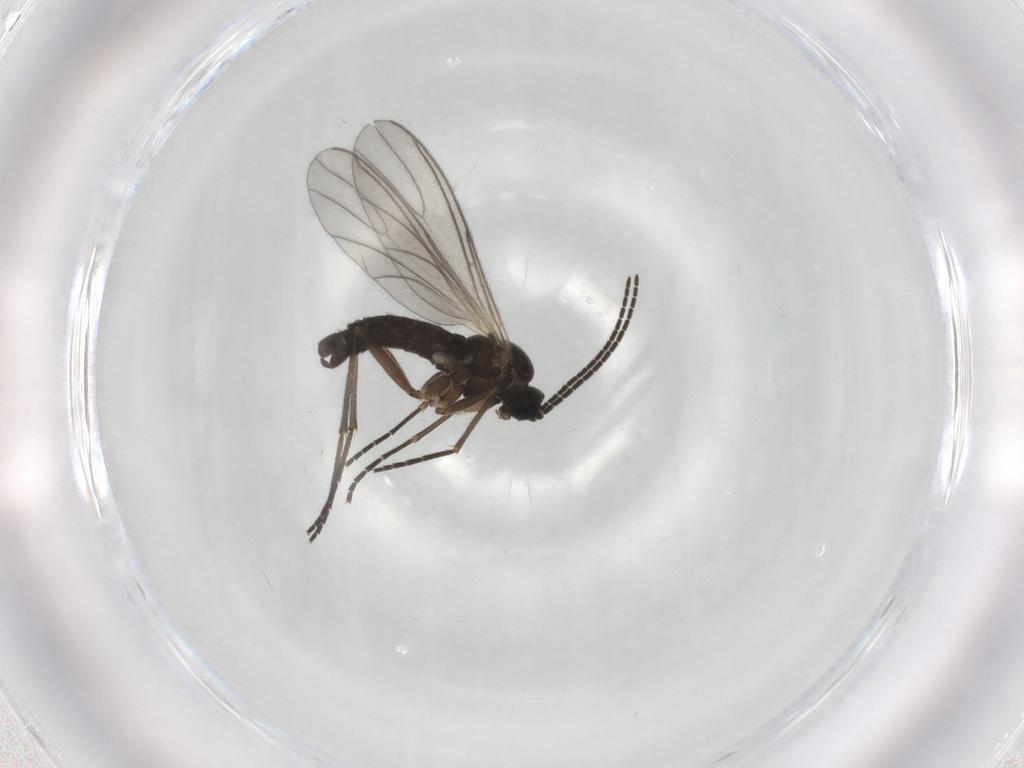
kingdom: Animalia
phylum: Arthropoda
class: Insecta
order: Diptera
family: Sciaridae
